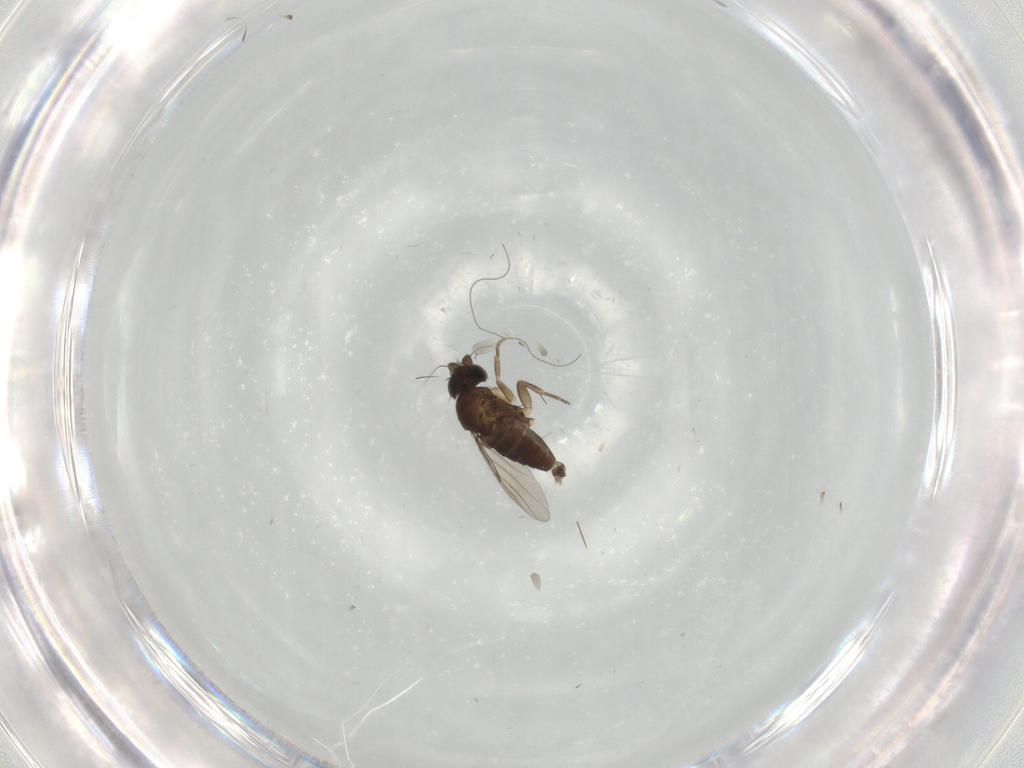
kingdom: Animalia
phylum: Arthropoda
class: Insecta
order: Diptera
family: Phoridae
